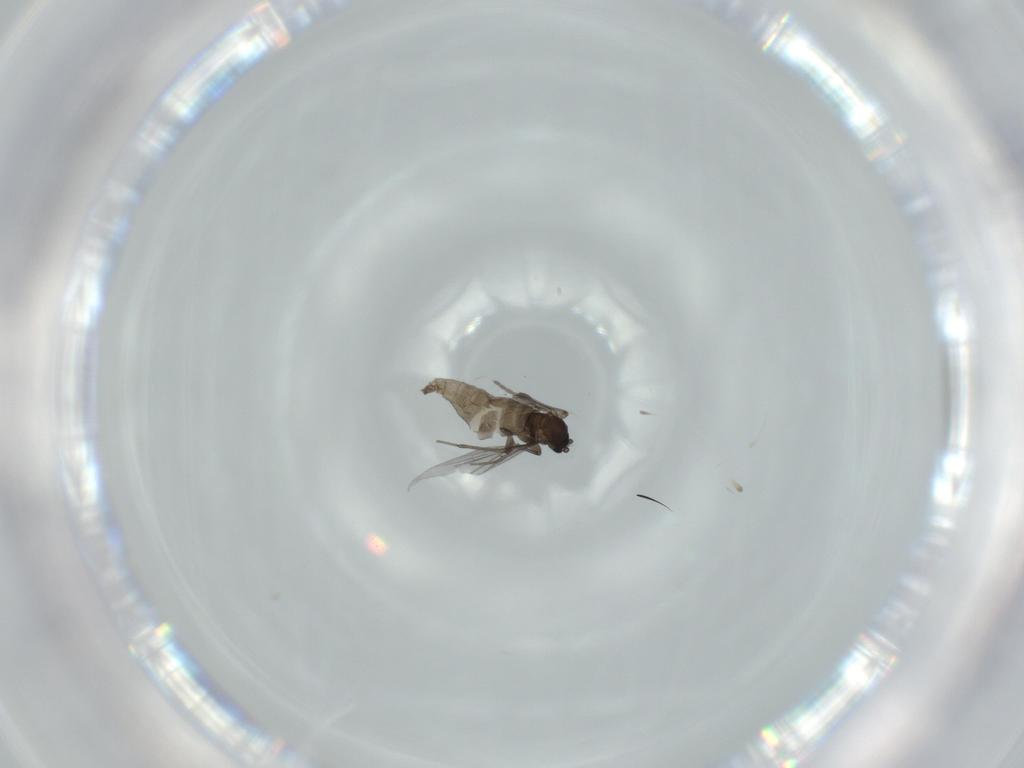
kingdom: Animalia
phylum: Arthropoda
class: Insecta
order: Diptera
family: Sciaridae
